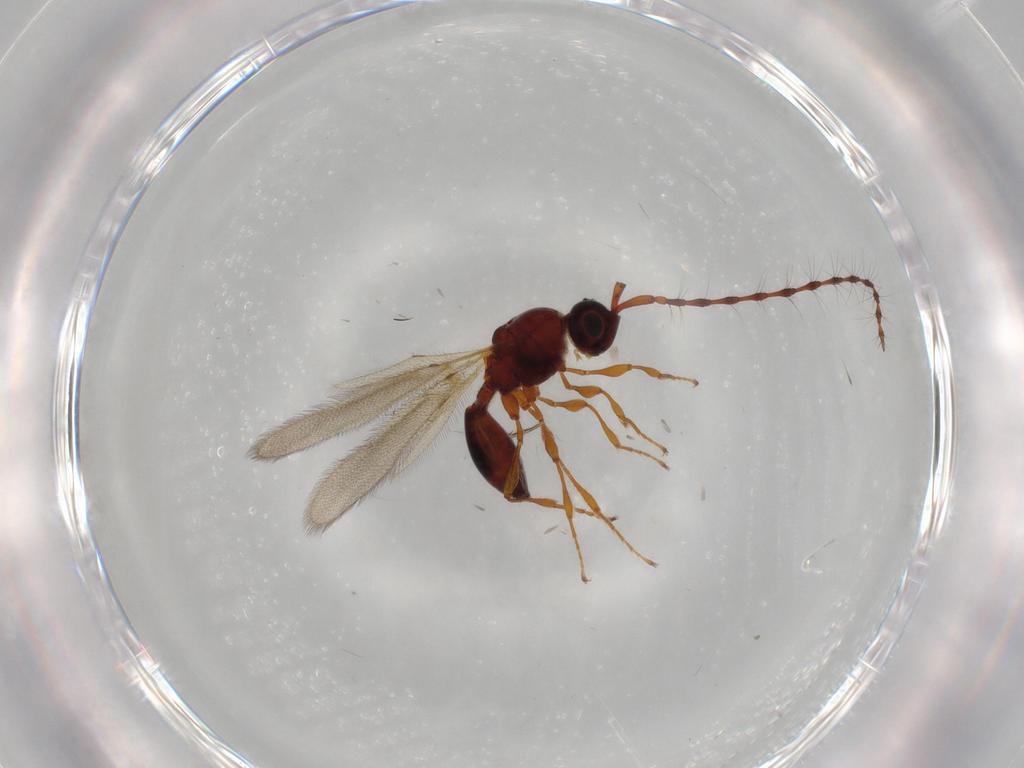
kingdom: Animalia
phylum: Arthropoda
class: Insecta
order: Hymenoptera
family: Diapriidae
